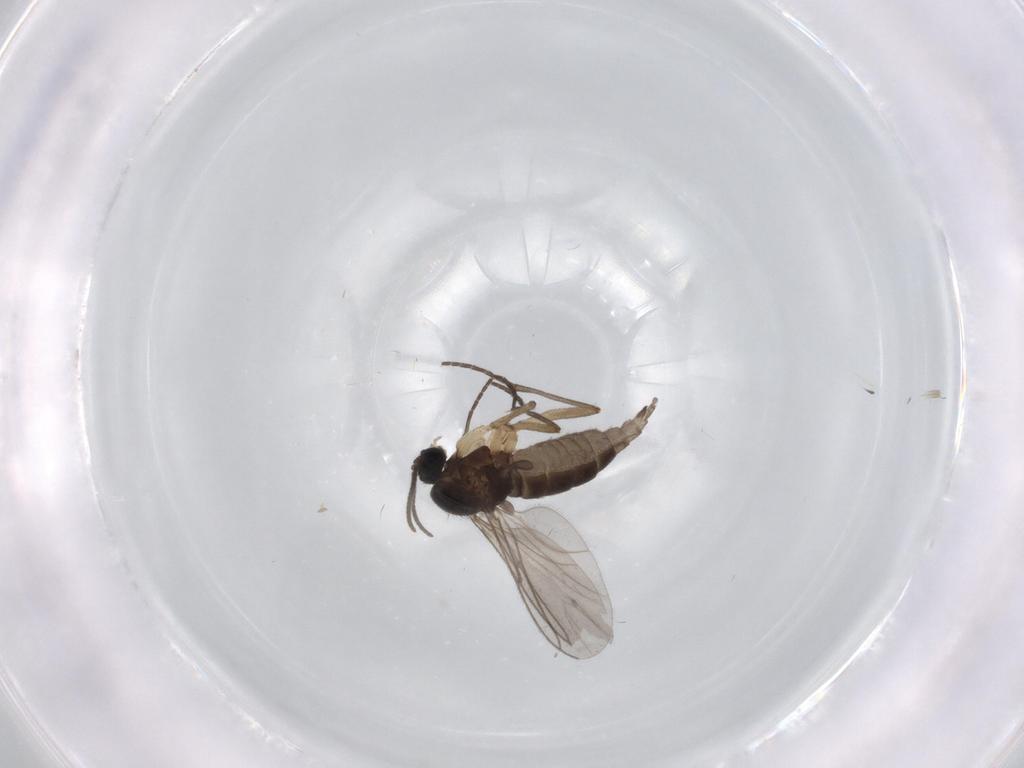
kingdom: Animalia
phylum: Arthropoda
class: Insecta
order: Diptera
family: Sciaridae
